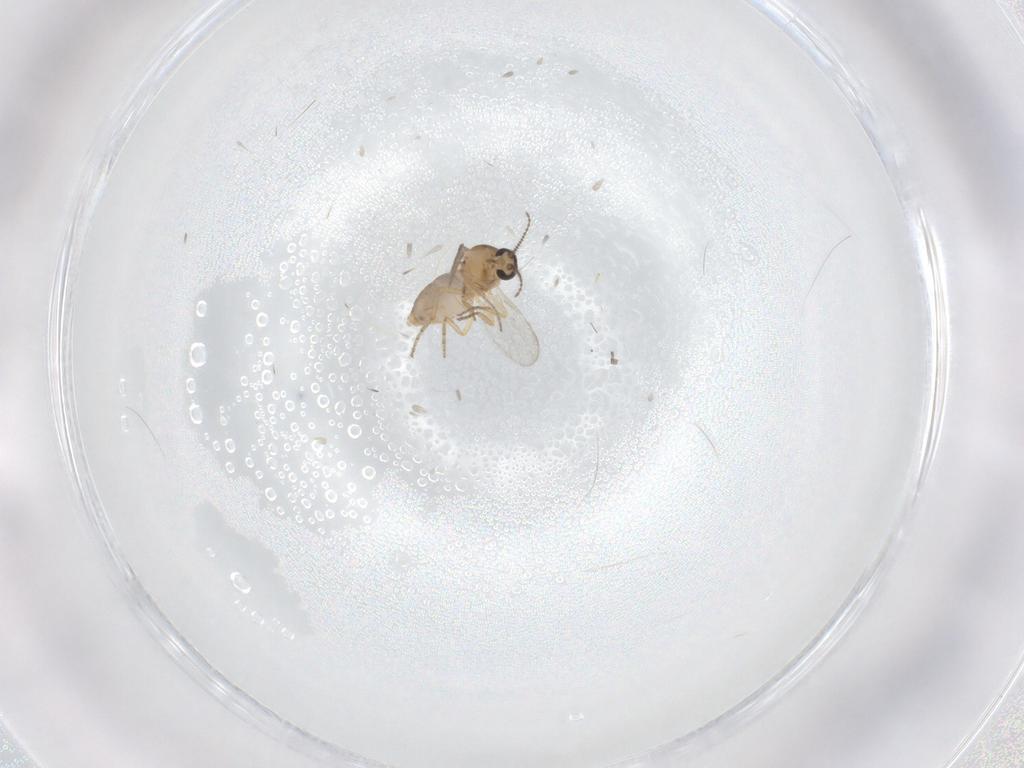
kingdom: Animalia
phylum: Arthropoda
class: Insecta
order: Diptera
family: Ceratopogonidae
